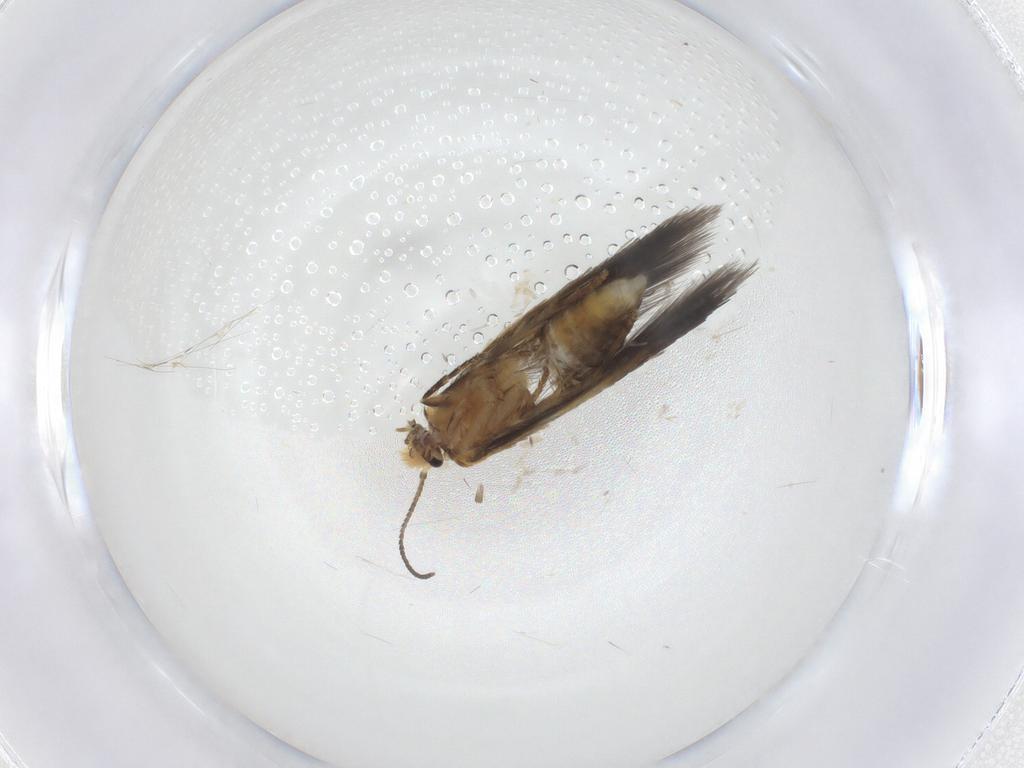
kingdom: Animalia
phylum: Arthropoda
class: Insecta
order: Lepidoptera
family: Nepticulidae
